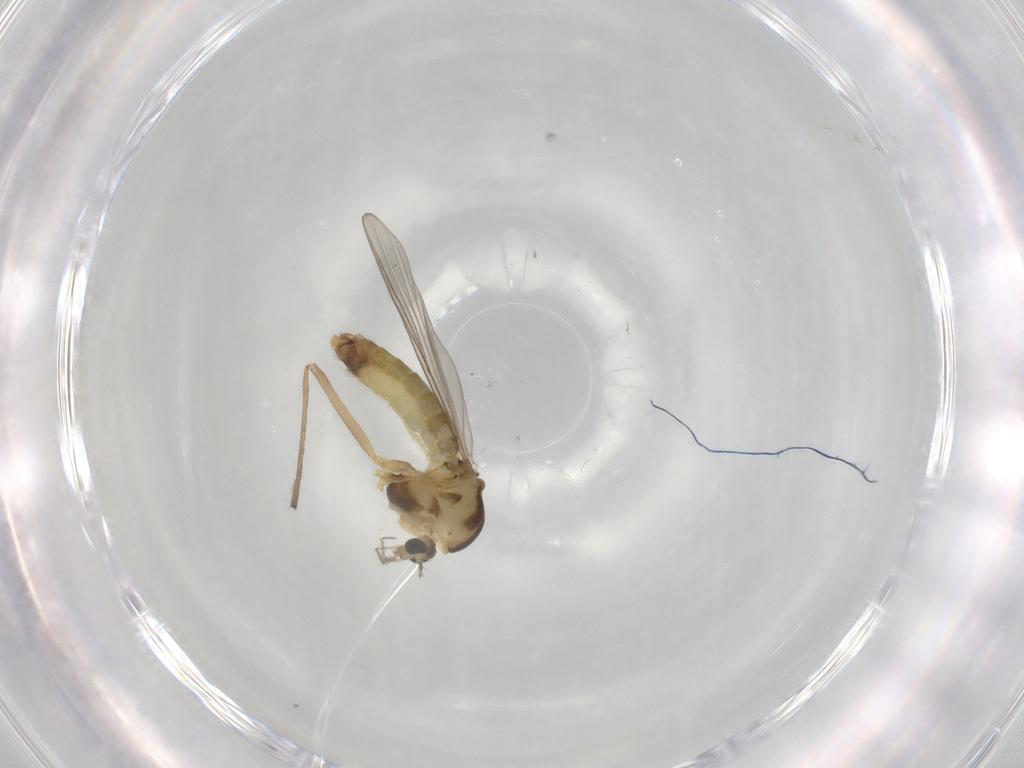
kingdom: Animalia
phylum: Arthropoda
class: Insecta
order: Diptera
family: Chironomidae
